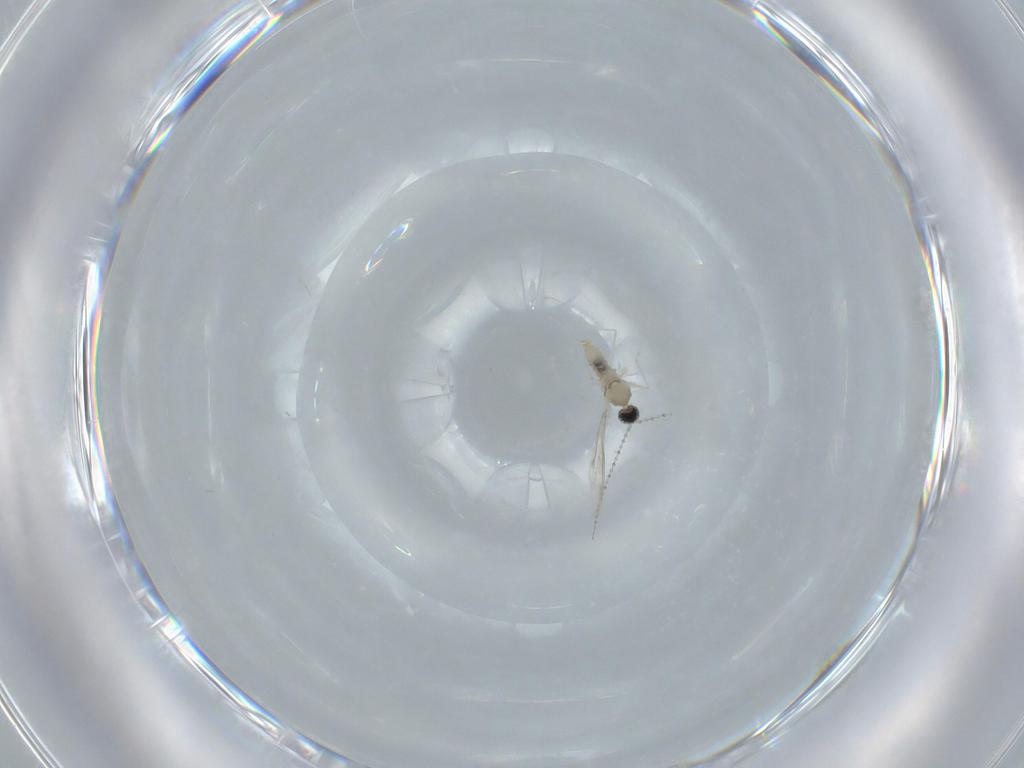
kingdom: Animalia
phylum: Arthropoda
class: Insecta
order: Diptera
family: Cecidomyiidae
